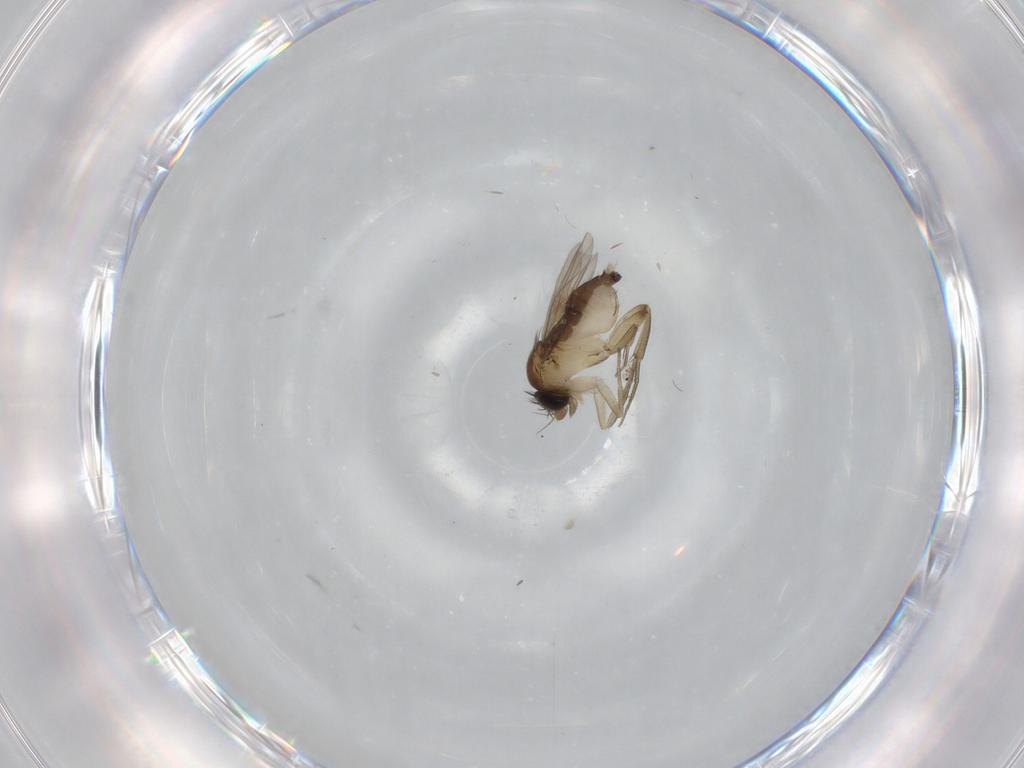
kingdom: Animalia
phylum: Arthropoda
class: Insecta
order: Diptera
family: Phoridae
